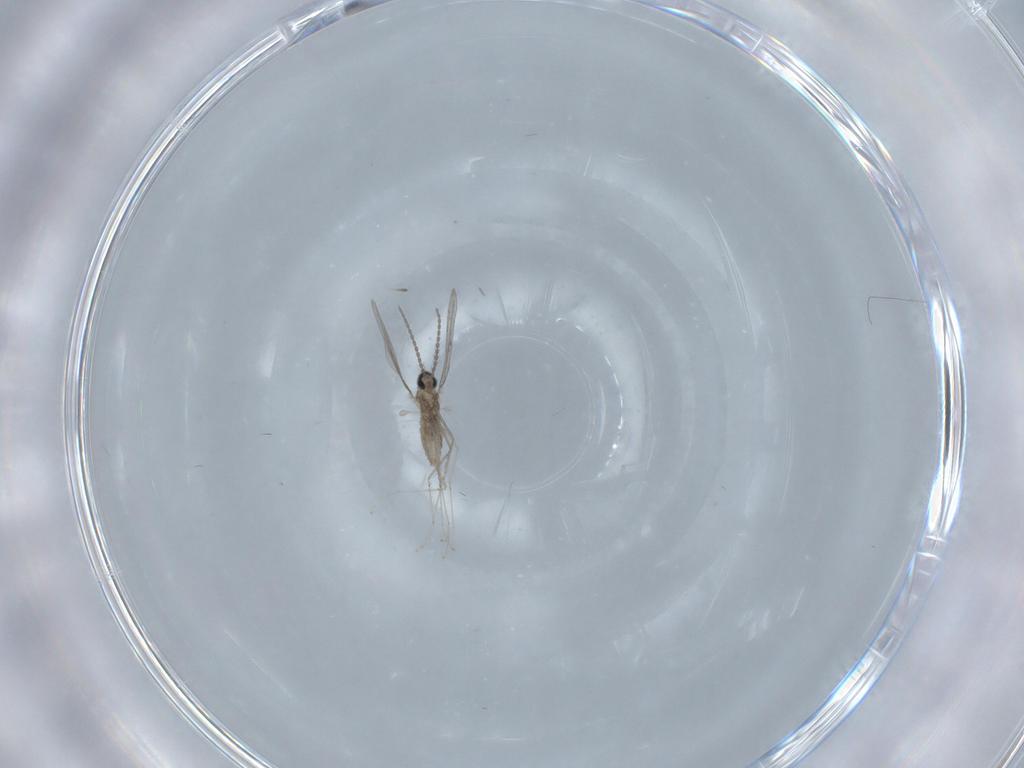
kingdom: Animalia
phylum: Arthropoda
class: Insecta
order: Diptera
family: Cecidomyiidae
